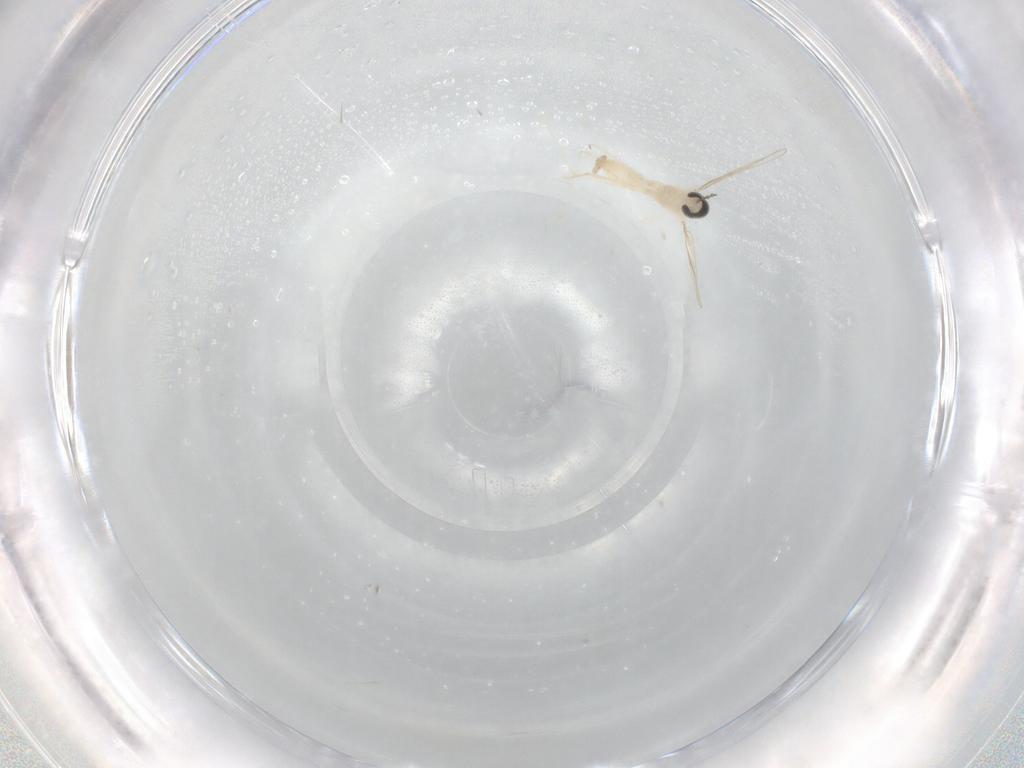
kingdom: Animalia
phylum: Arthropoda
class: Insecta
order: Diptera
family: Cecidomyiidae
